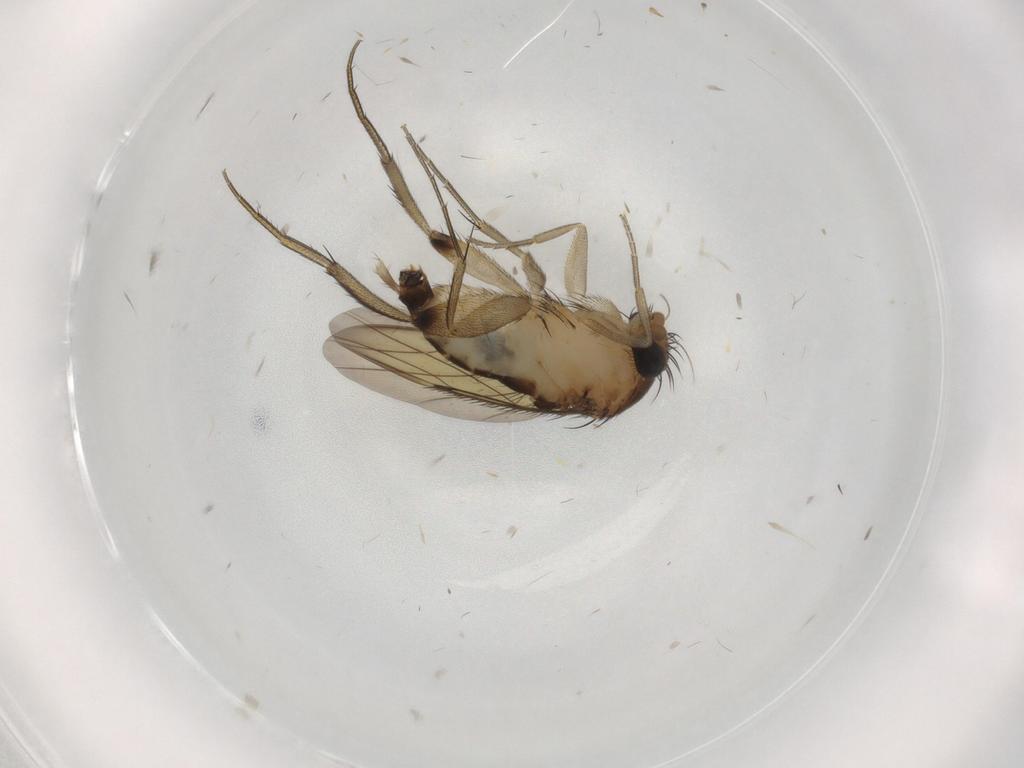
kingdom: Animalia
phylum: Arthropoda
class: Insecta
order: Diptera
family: Phoridae
